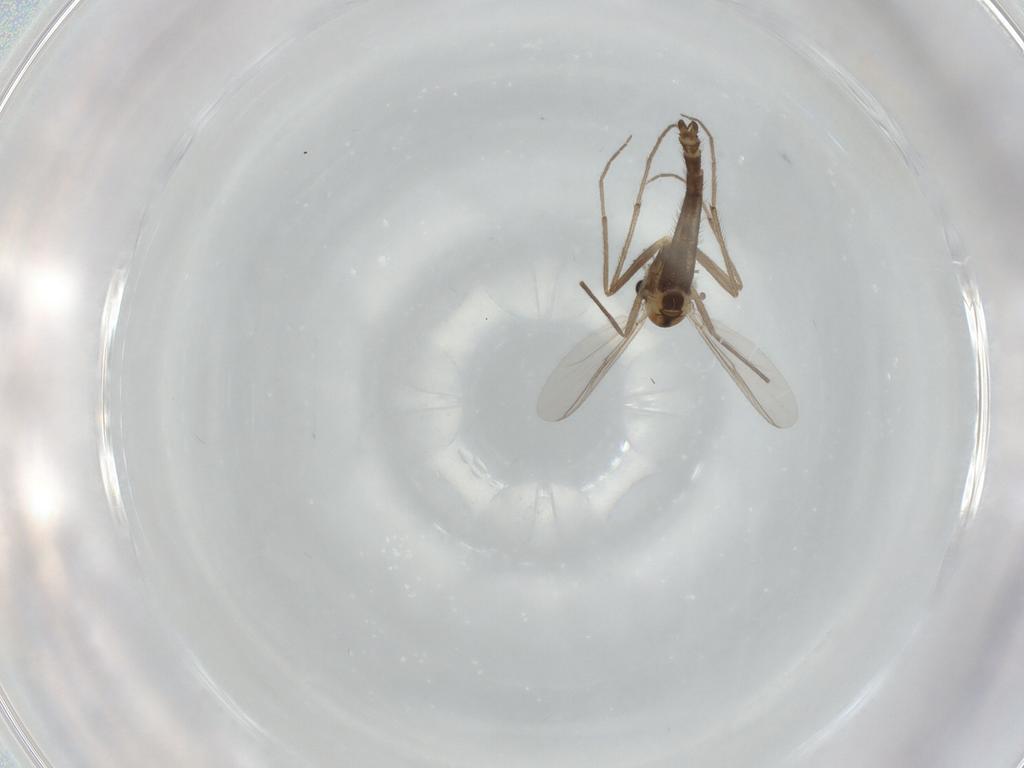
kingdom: Animalia
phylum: Arthropoda
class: Insecta
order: Diptera
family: Chironomidae
